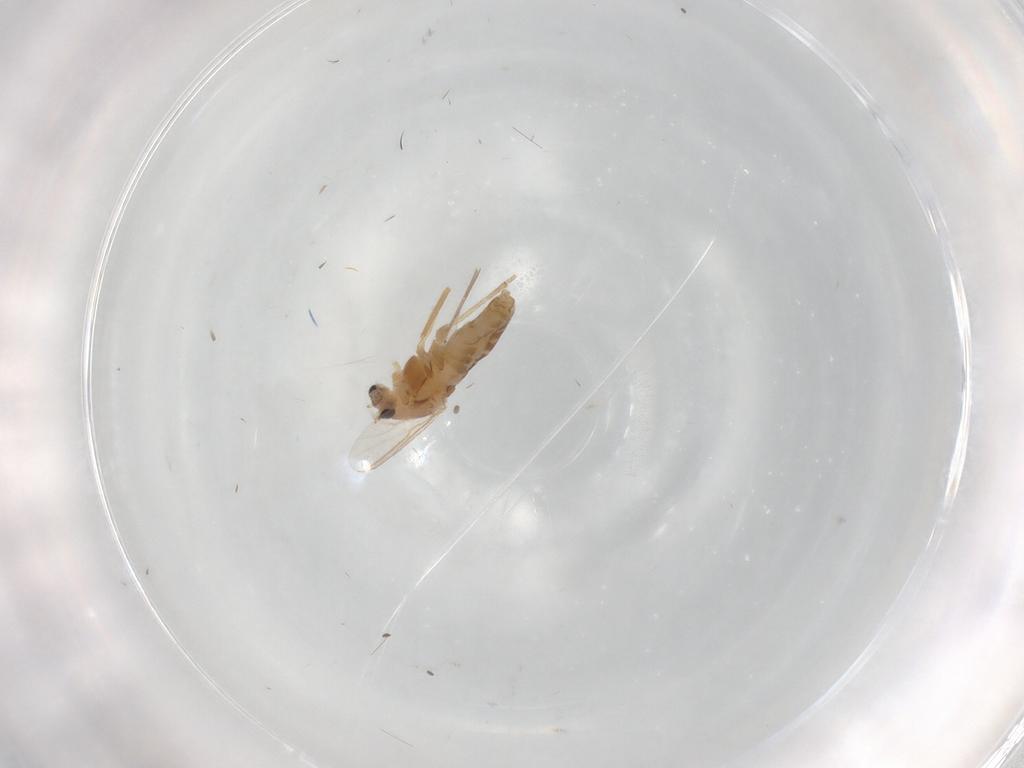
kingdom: Animalia
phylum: Arthropoda
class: Insecta
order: Diptera
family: Chironomidae
